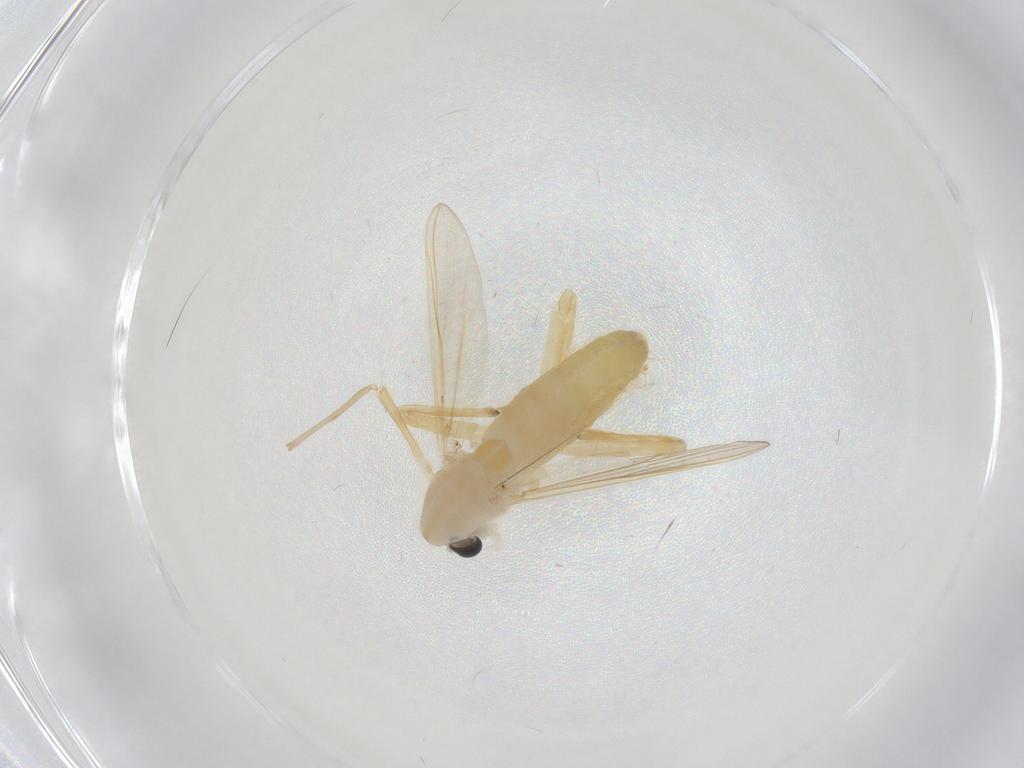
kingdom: Animalia
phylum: Arthropoda
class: Insecta
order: Diptera
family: Chironomidae
